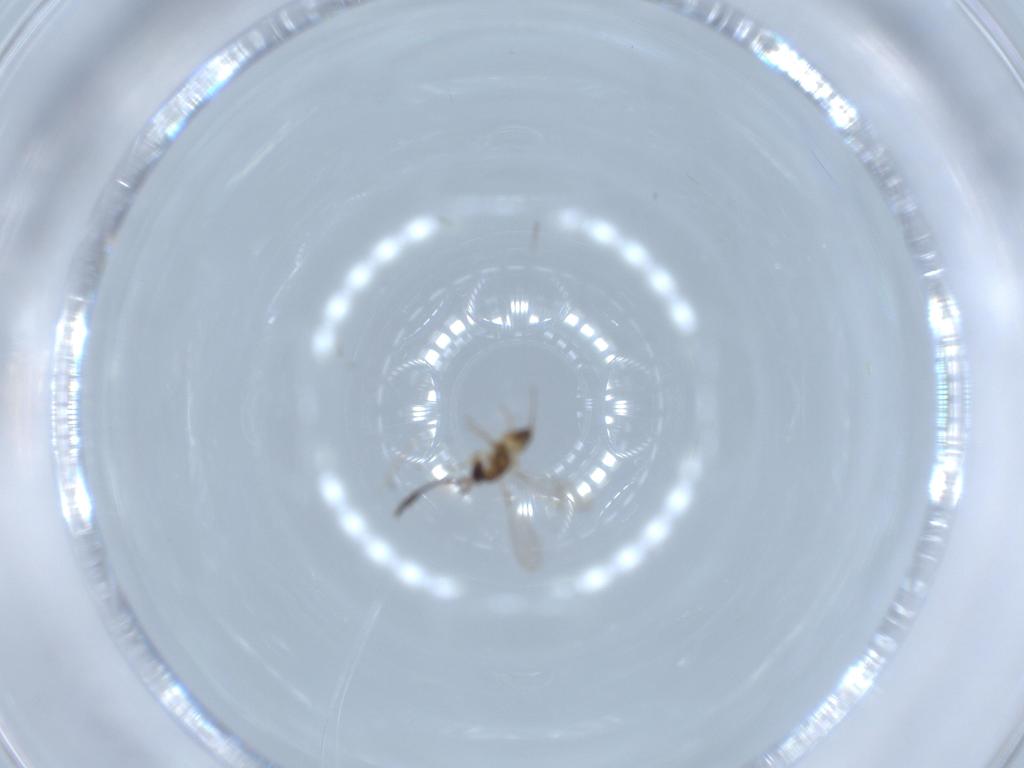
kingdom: Animalia
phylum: Arthropoda
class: Insecta
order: Hymenoptera
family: Mymaridae
